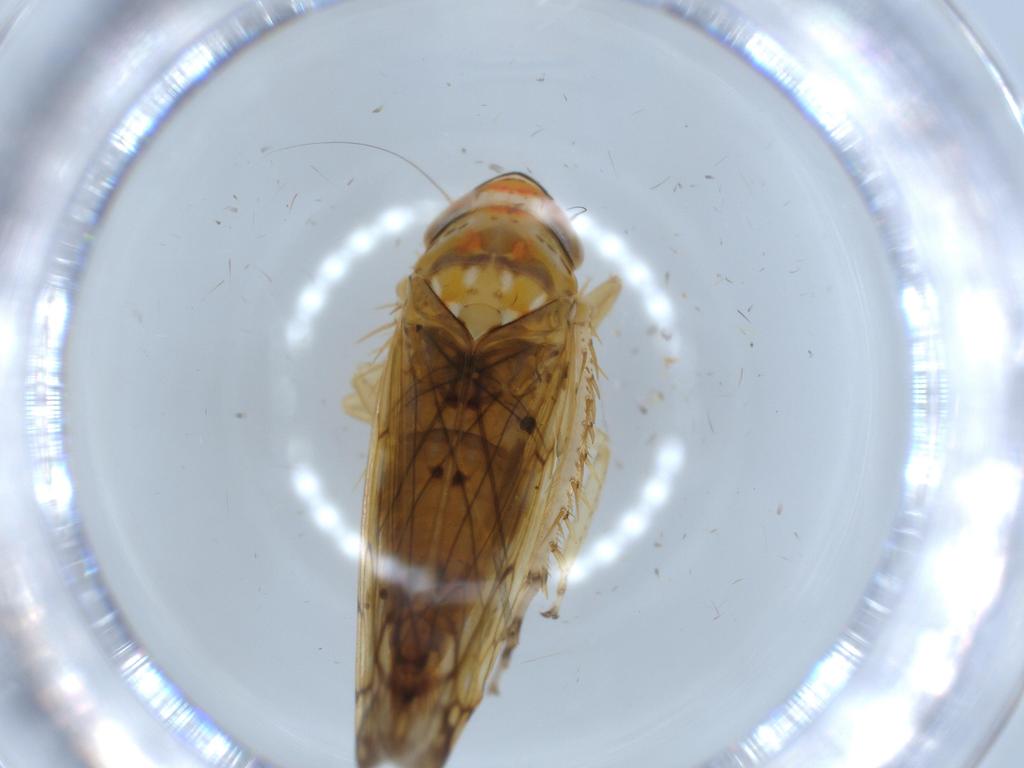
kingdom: Animalia
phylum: Arthropoda
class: Insecta
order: Hemiptera
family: Cicadellidae
